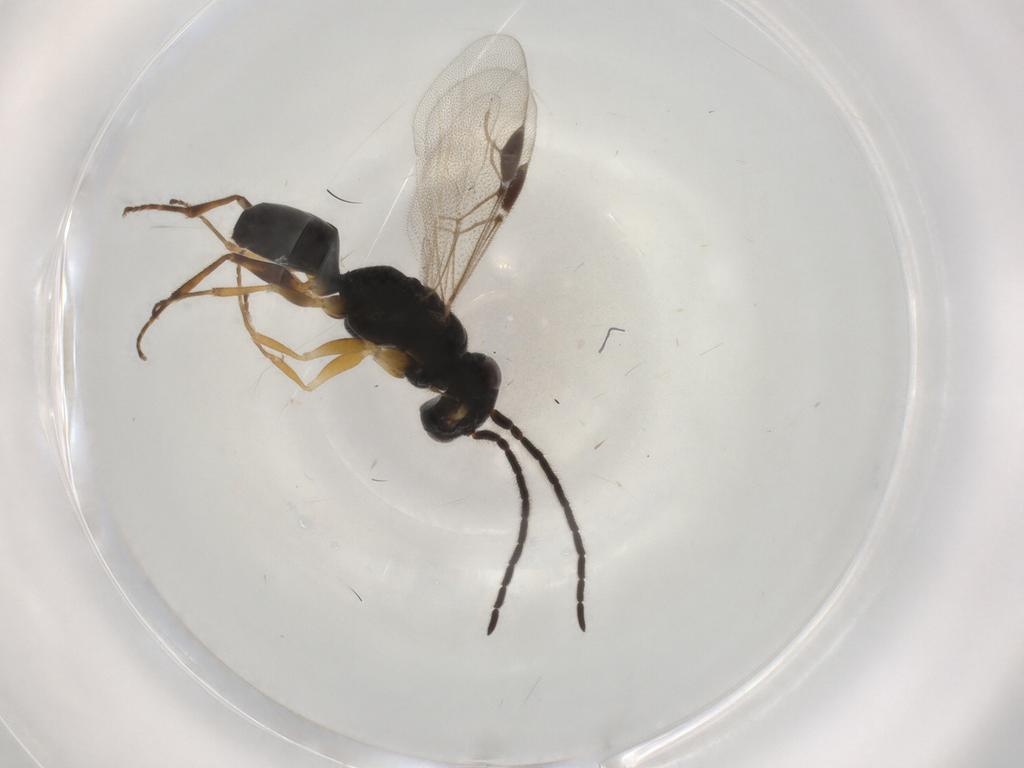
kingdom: Animalia
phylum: Arthropoda
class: Insecta
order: Hymenoptera
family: Dryinidae
